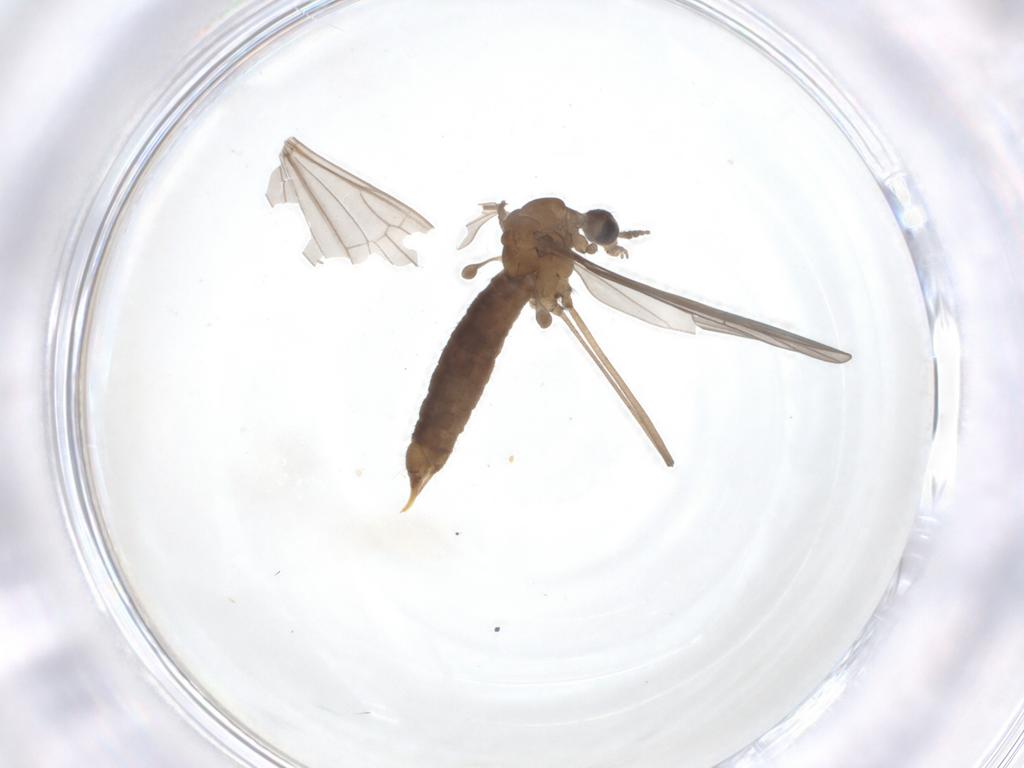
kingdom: Animalia
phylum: Arthropoda
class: Insecta
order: Diptera
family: Limoniidae
